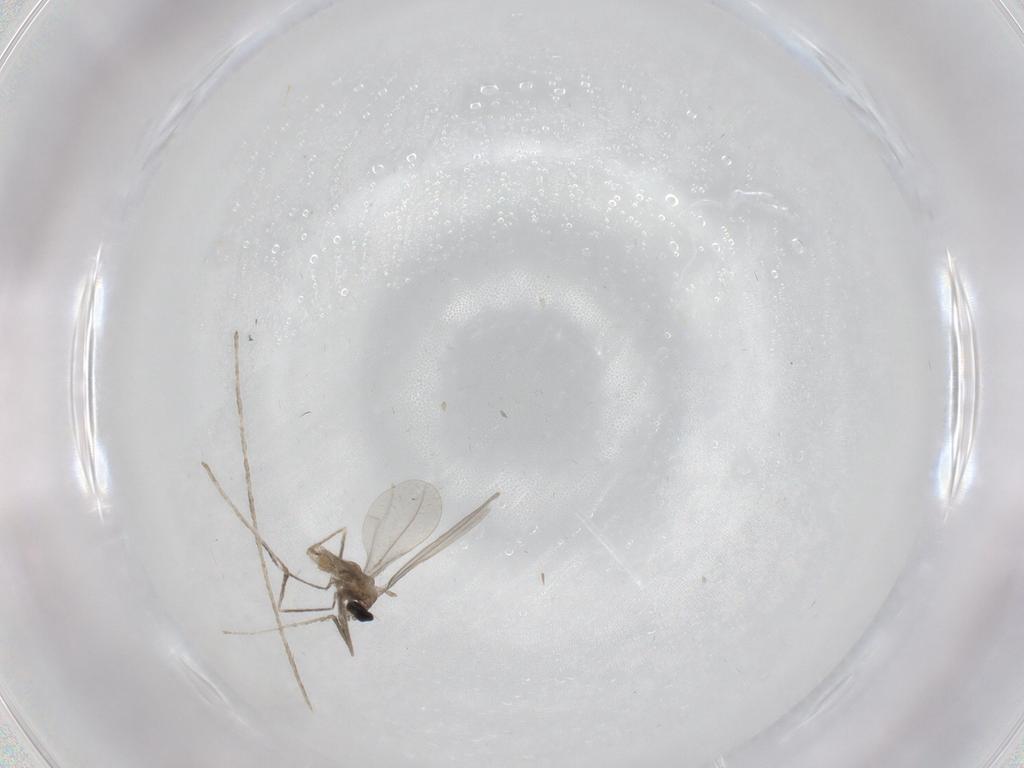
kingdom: Animalia
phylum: Arthropoda
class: Insecta
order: Diptera
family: Cecidomyiidae
